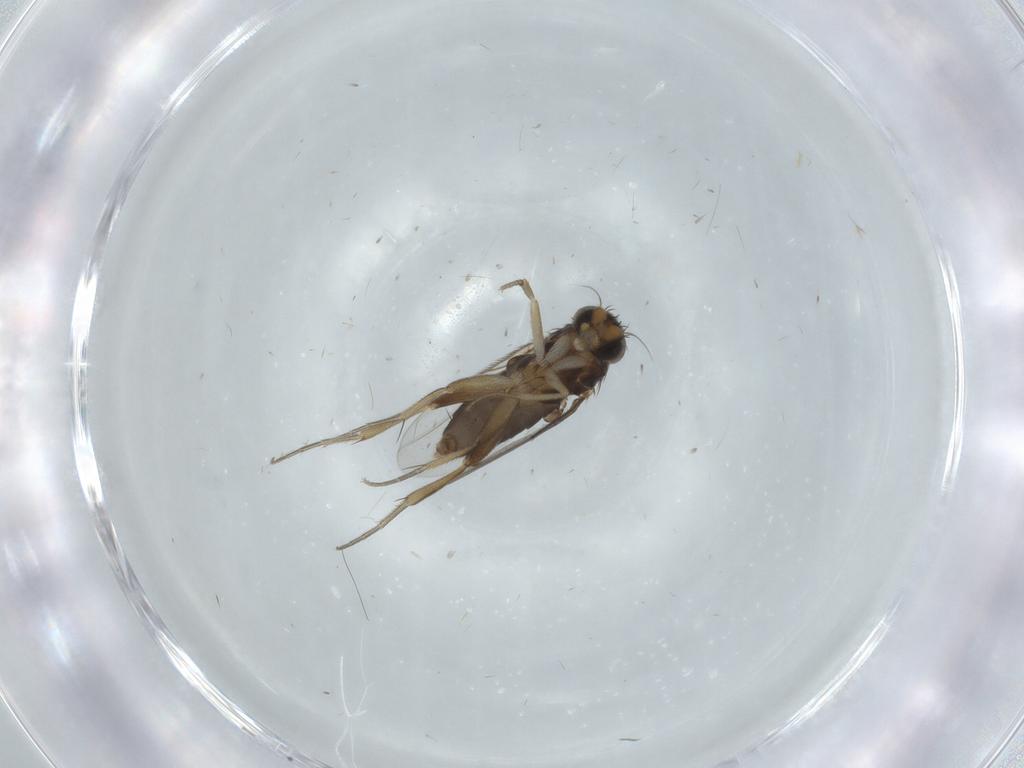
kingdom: Animalia
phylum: Arthropoda
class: Insecta
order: Diptera
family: Phoridae
